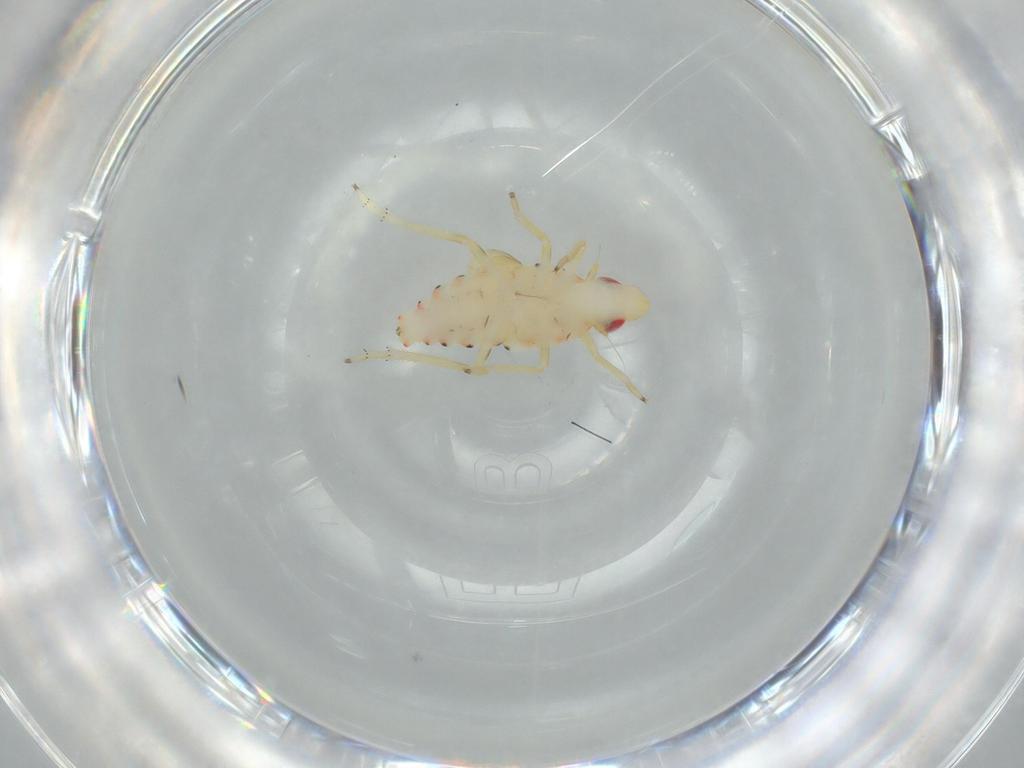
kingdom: Animalia
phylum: Arthropoda
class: Insecta
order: Hemiptera
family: Tropiduchidae
